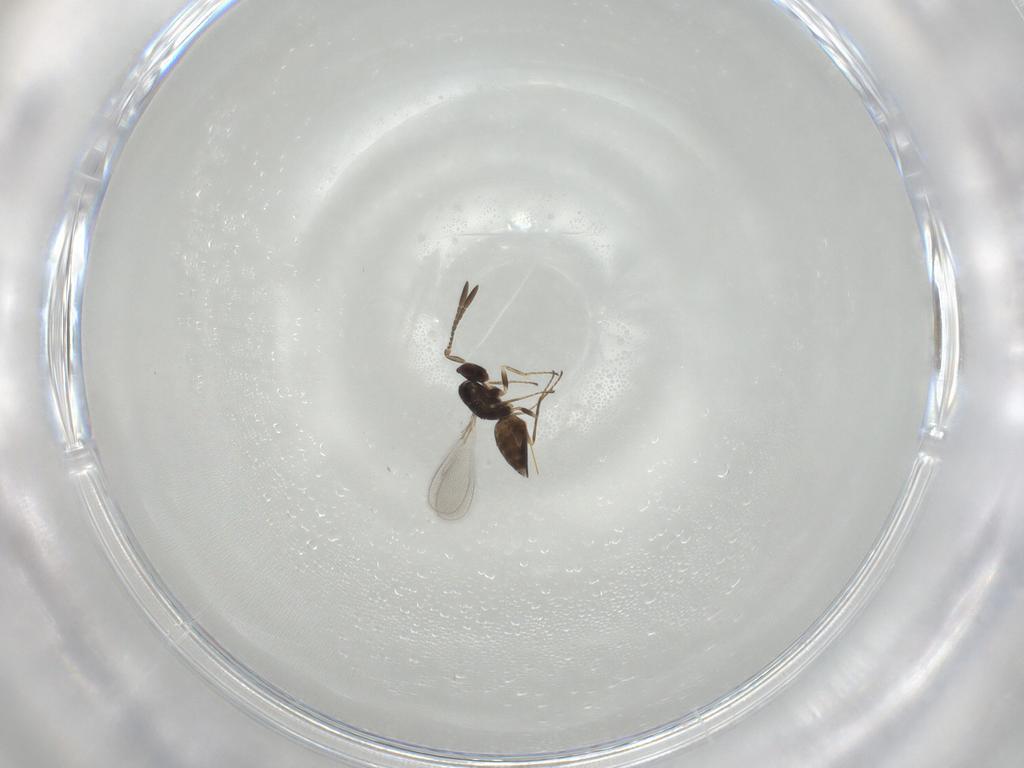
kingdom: Animalia
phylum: Arthropoda
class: Insecta
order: Hymenoptera
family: Mymaridae
